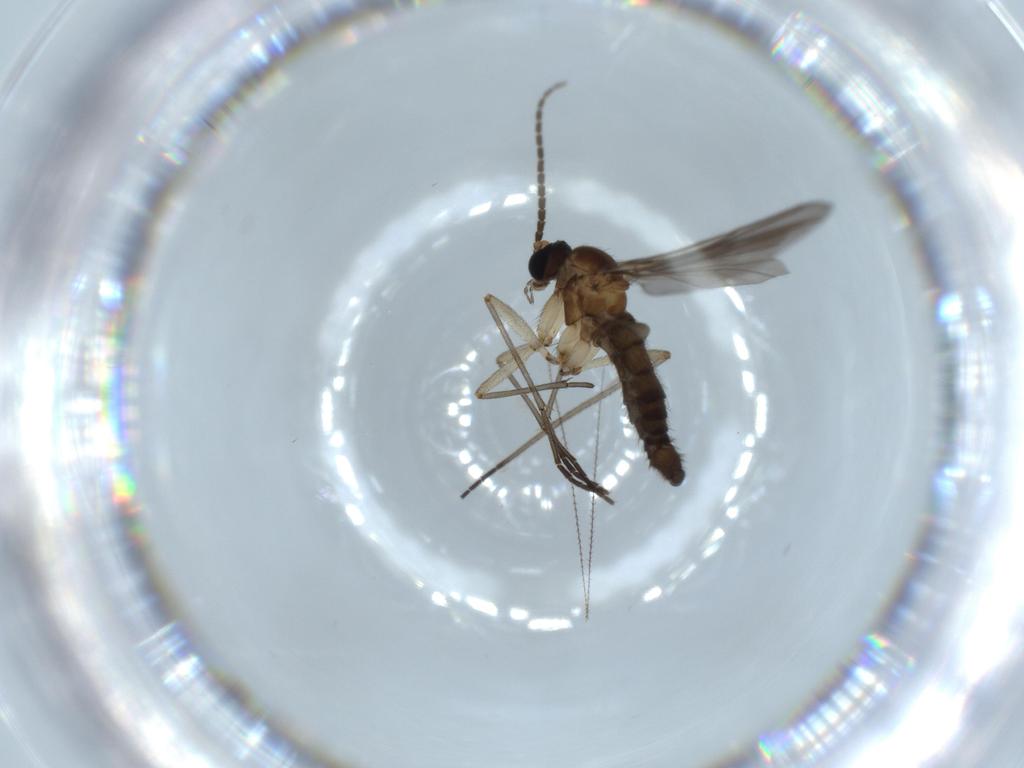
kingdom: Animalia
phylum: Arthropoda
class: Insecta
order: Diptera
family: Sciaridae
